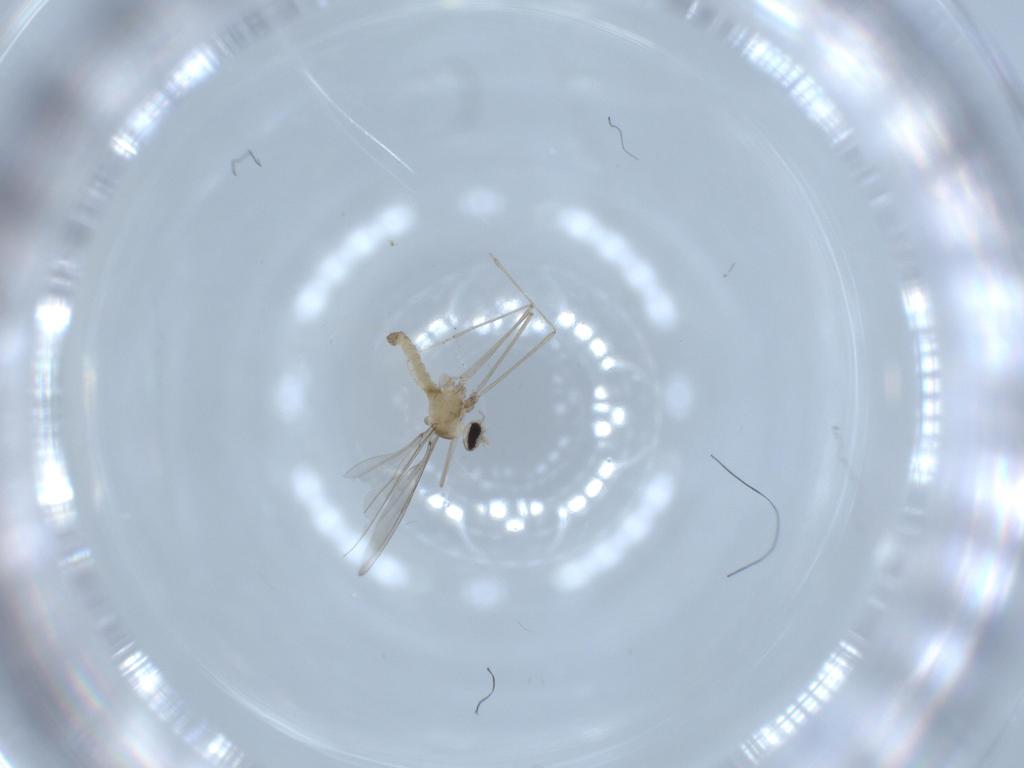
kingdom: Animalia
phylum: Arthropoda
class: Insecta
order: Diptera
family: Cecidomyiidae
